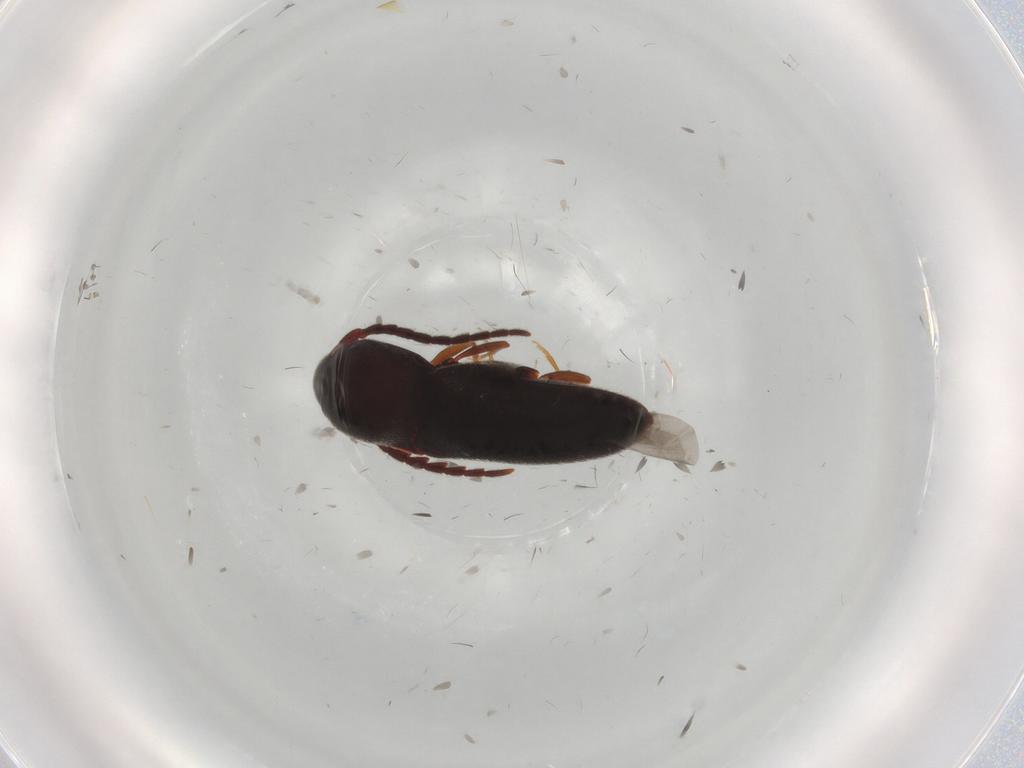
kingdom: Animalia
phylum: Arthropoda
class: Insecta
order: Coleoptera
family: Eucnemidae
